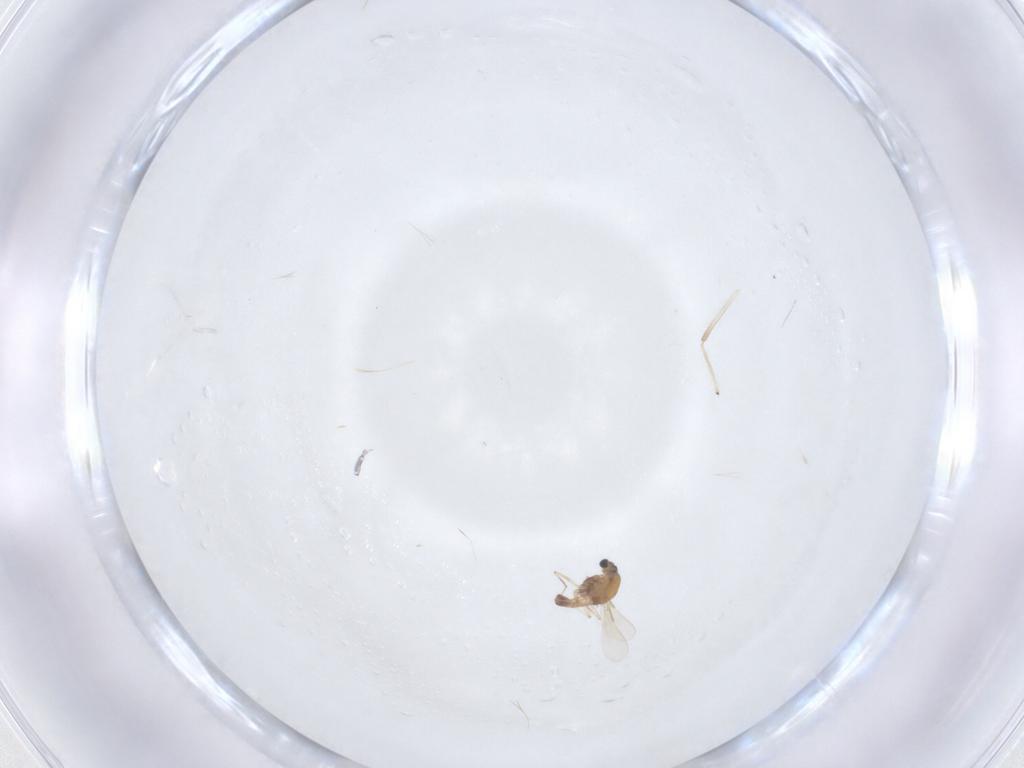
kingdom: Animalia
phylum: Arthropoda
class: Insecta
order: Diptera
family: Chironomidae
